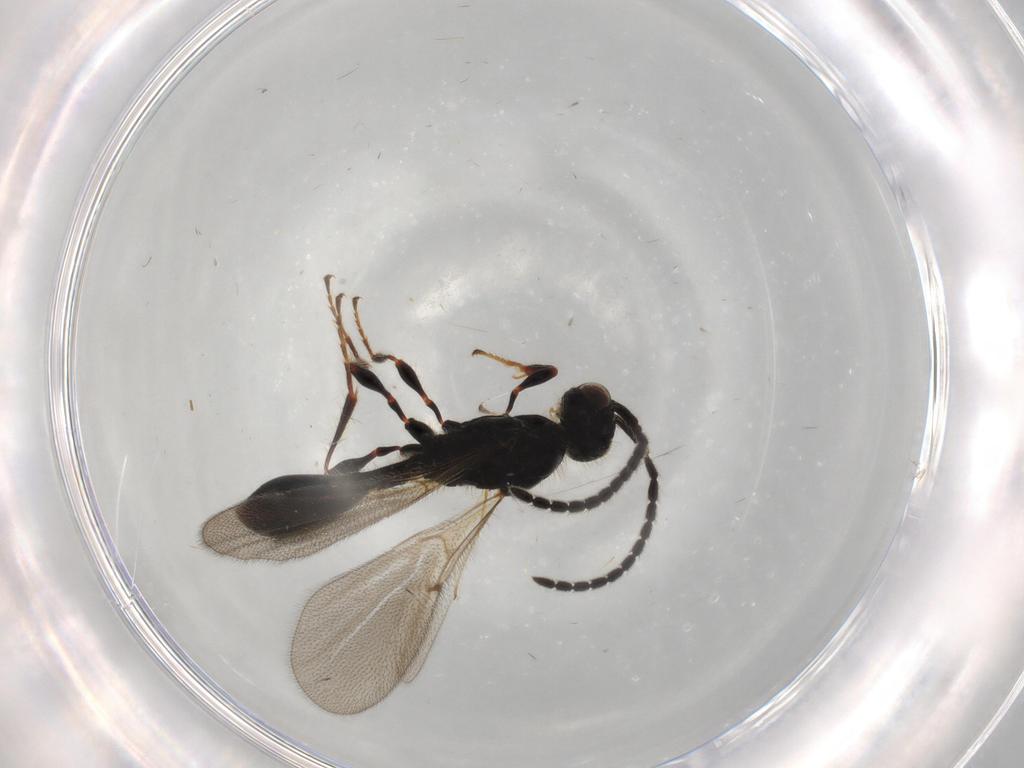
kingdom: Animalia
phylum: Arthropoda
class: Insecta
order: Hymenoptera
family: Diapriidae
